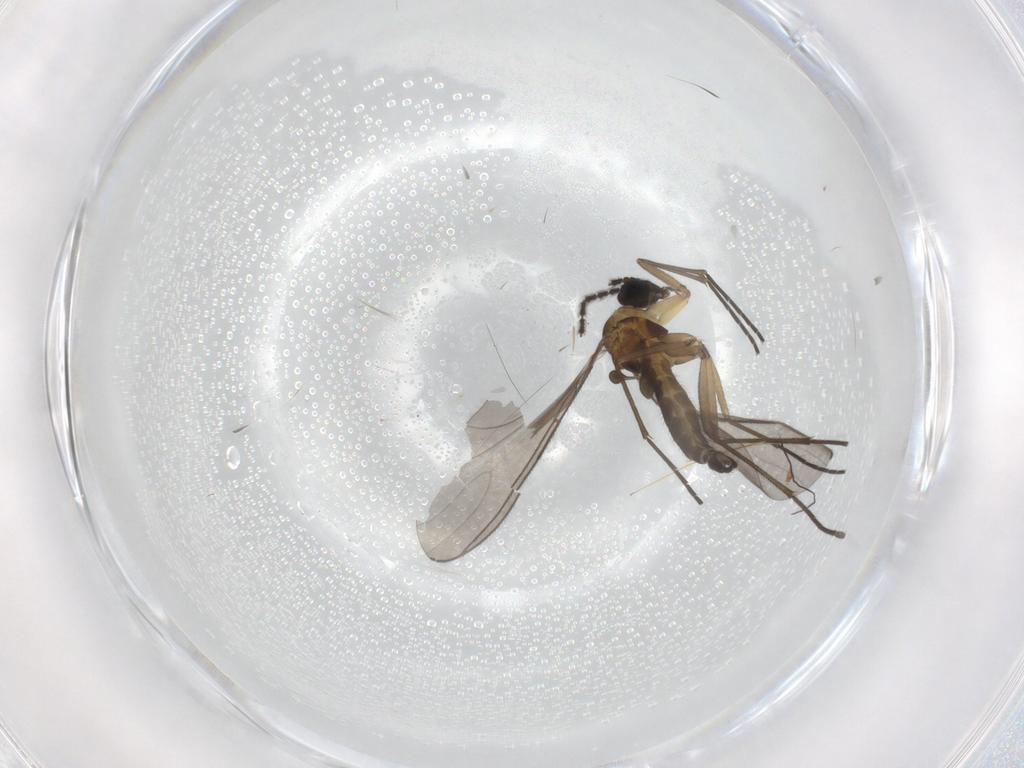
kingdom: Animalia
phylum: Arthropoda
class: Insecta
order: Diptera
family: Sciaridae
